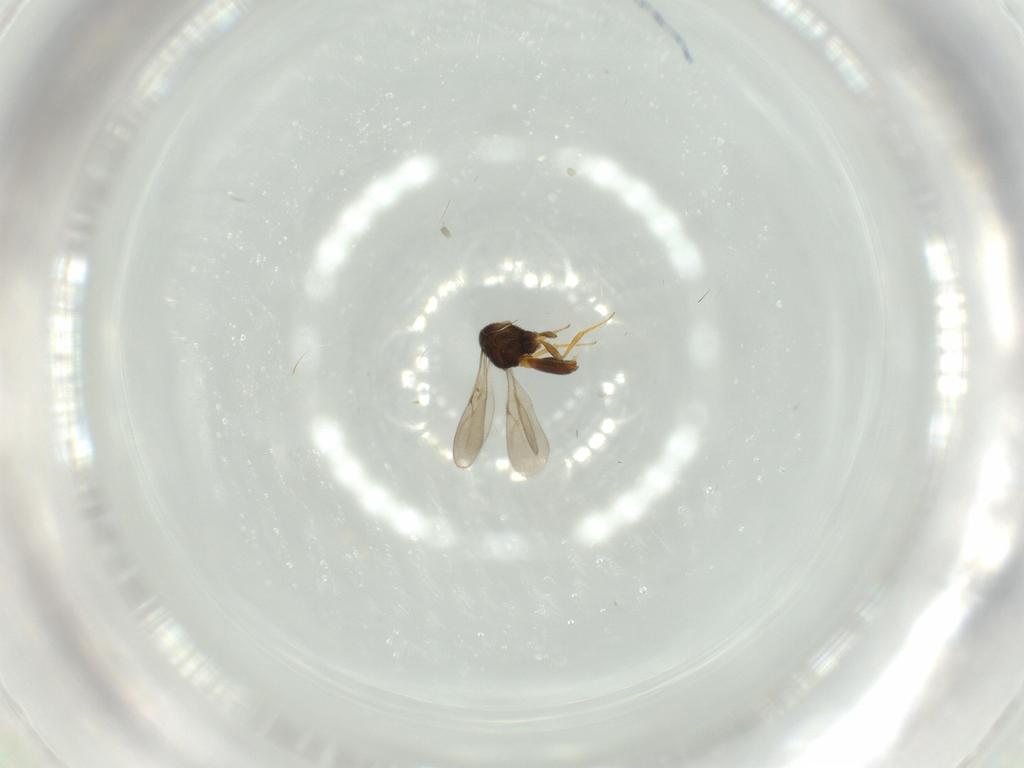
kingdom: Animalia
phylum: Arthropoda
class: Insecta
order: Hymenoptera
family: Scelionidae
